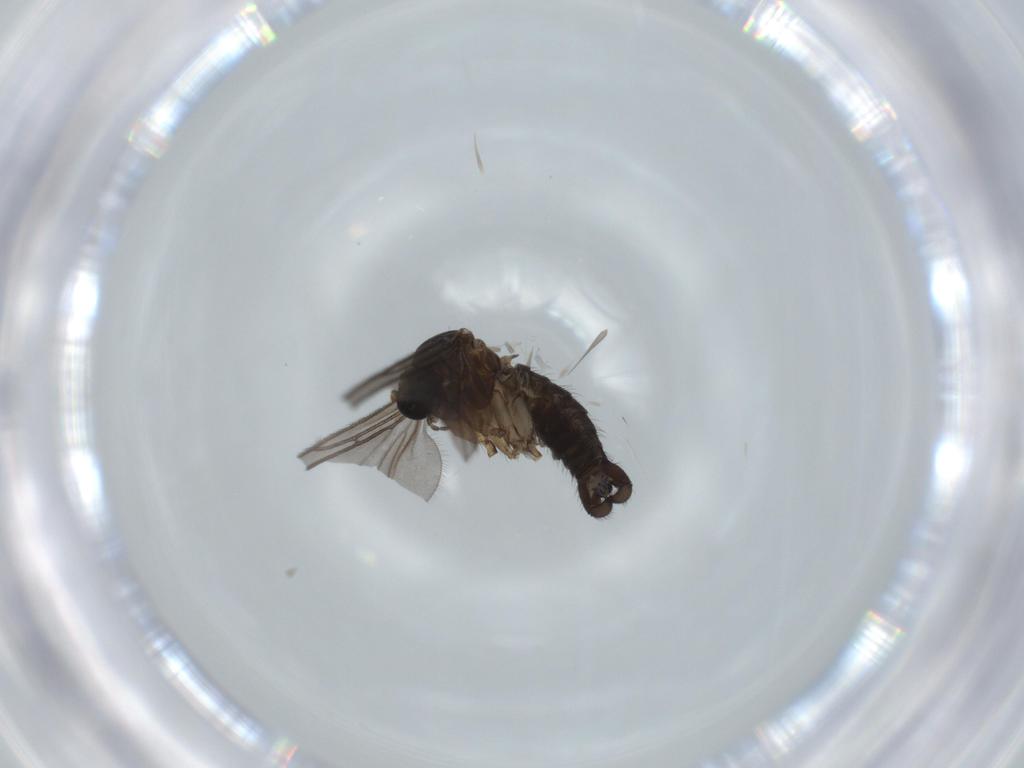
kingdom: Animalia
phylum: Arthropoda
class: Insecta
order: Diptera
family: Sciaridae
